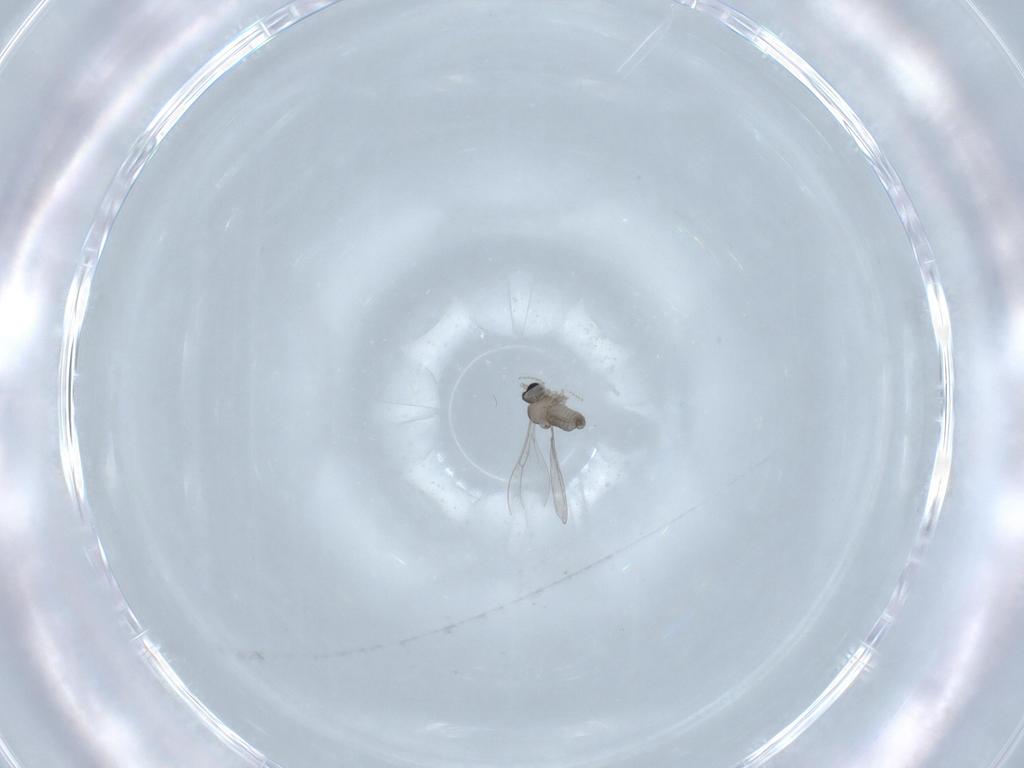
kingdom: Animalia
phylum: Arthropoda
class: Insecta
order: Diptera
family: Cecidomyiidae
